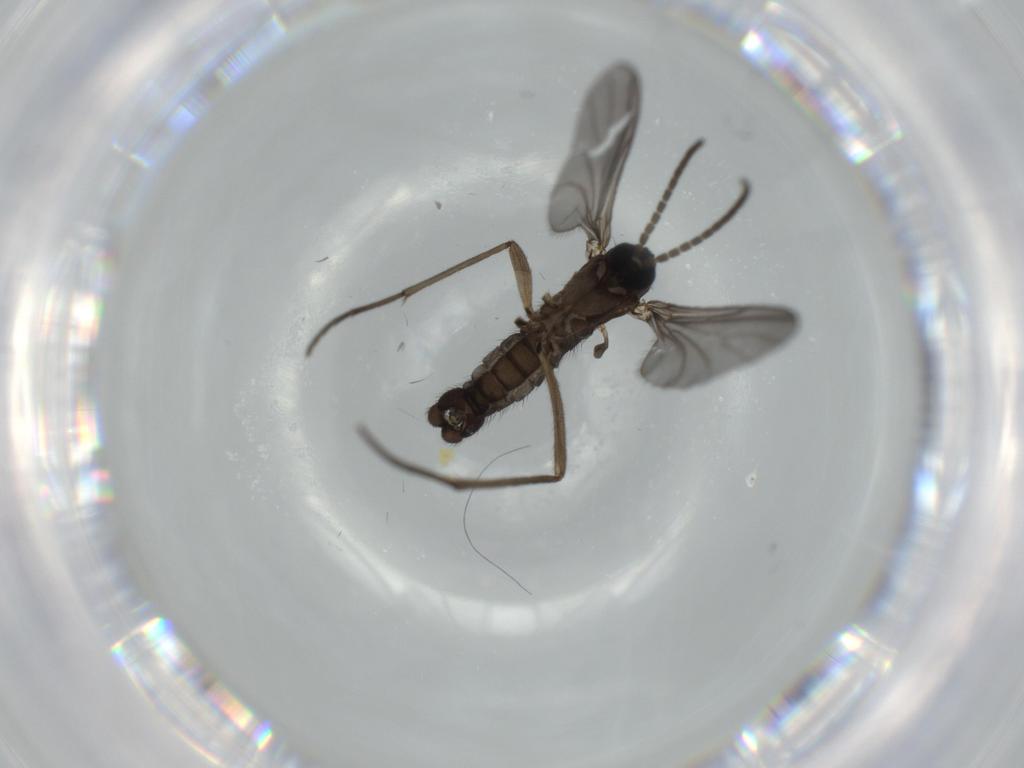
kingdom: Animalia
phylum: Arthropoda
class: Insecta
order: Diptera
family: Sciaridae
